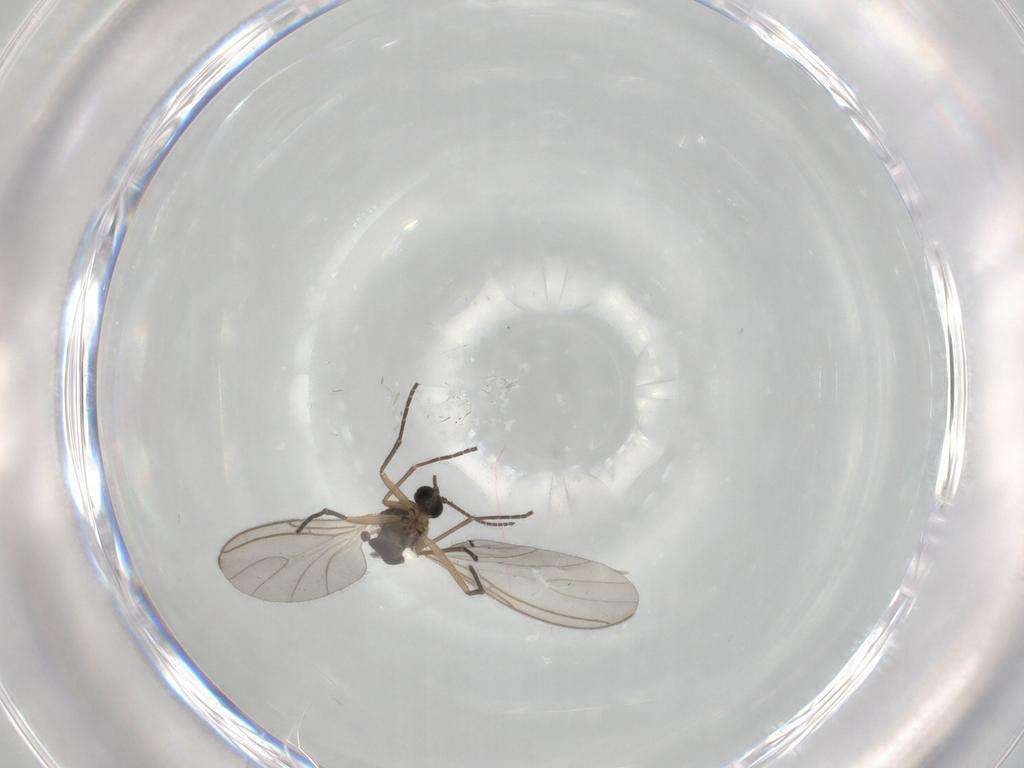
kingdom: Animalia
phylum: Arthropoda
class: Insecta
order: Diptera
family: Sciaridae
